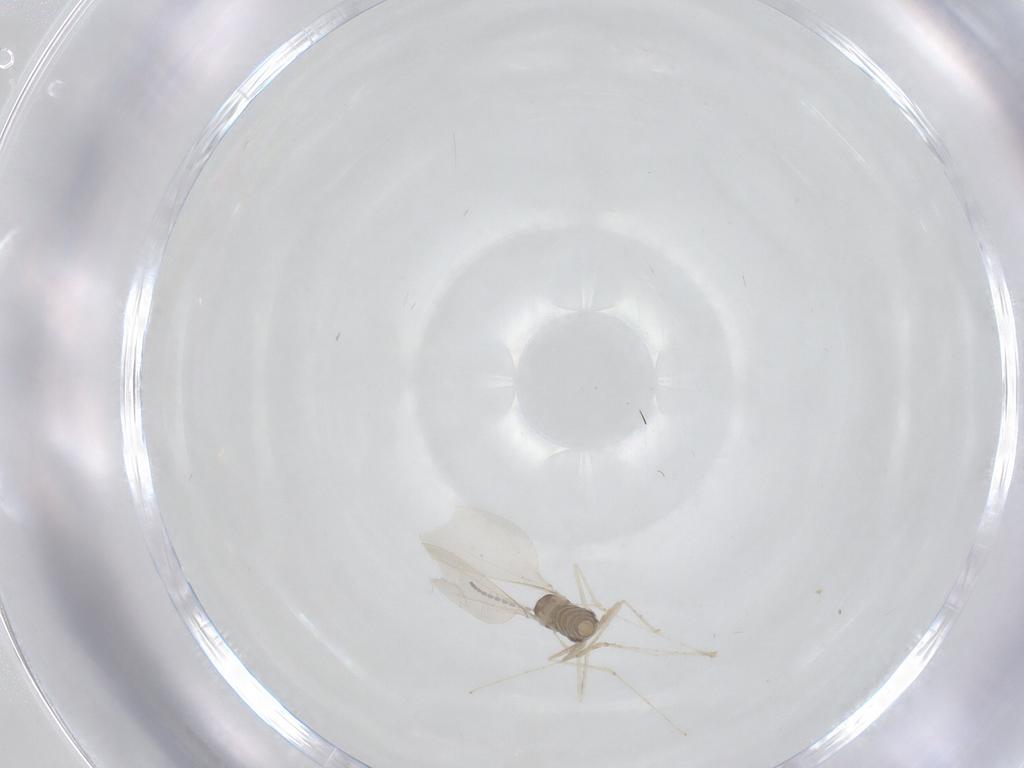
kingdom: Animalia
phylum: Arthropoda
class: Insecta
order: Diptera
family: Cecidomyiidae
